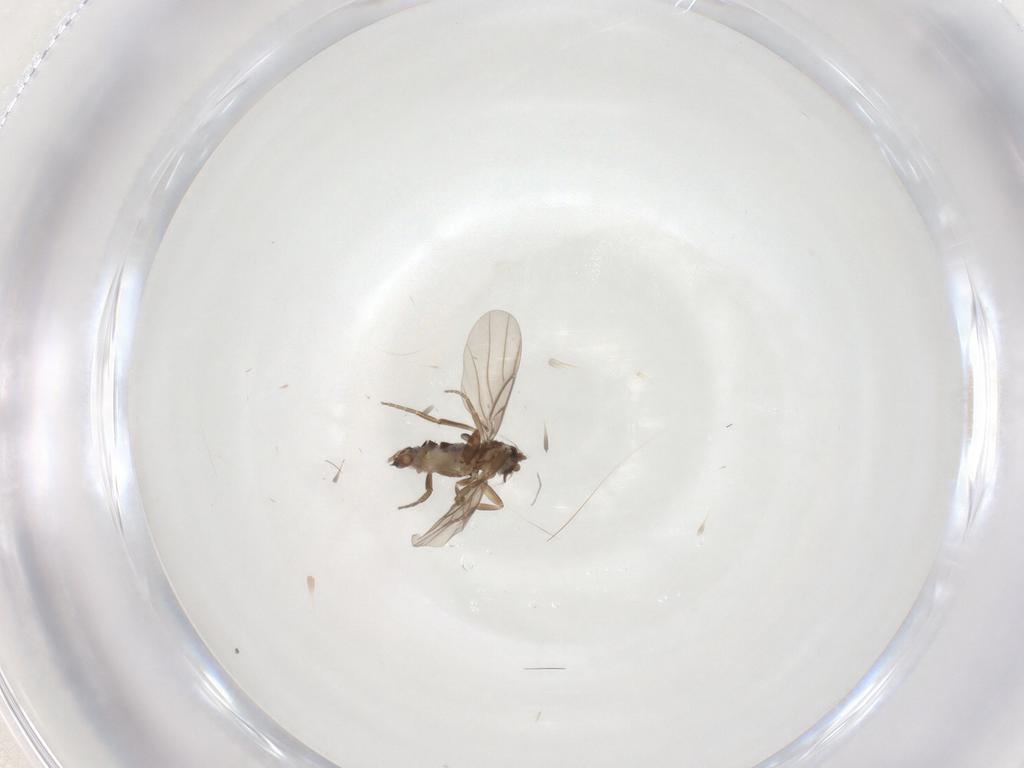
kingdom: Animalia
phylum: Arthropoda
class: Insecta
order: Diptera
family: Phoridae
